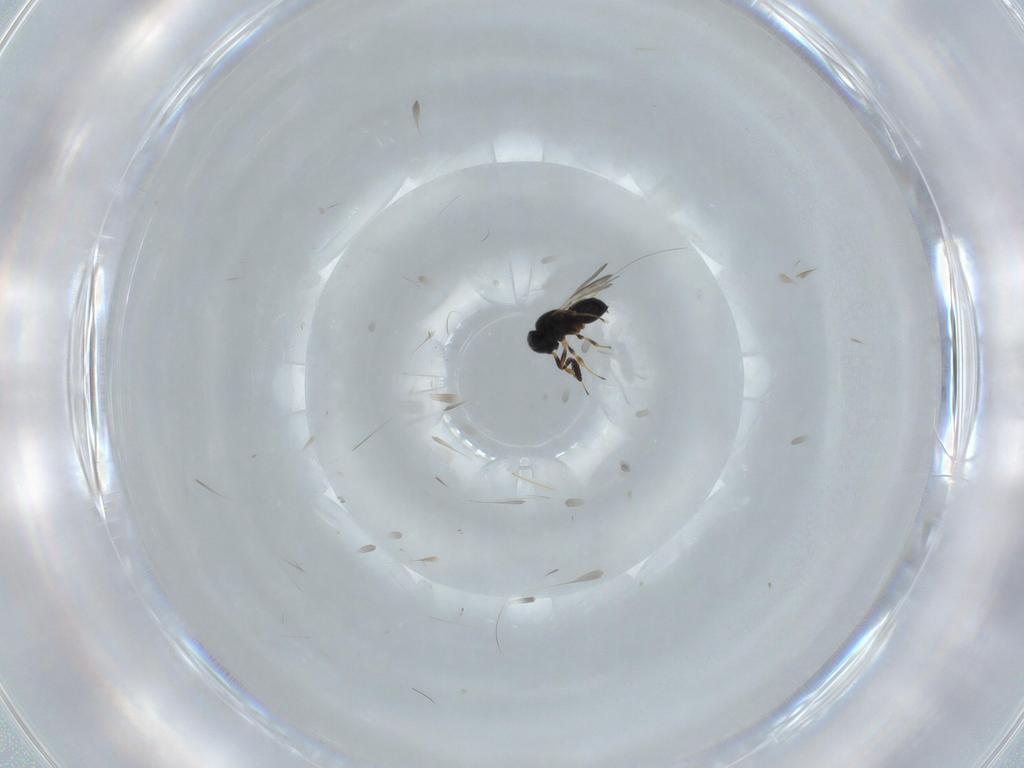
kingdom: Animalia
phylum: Arthropoda
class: Insecta
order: Hymenoptera
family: Scelionidae
